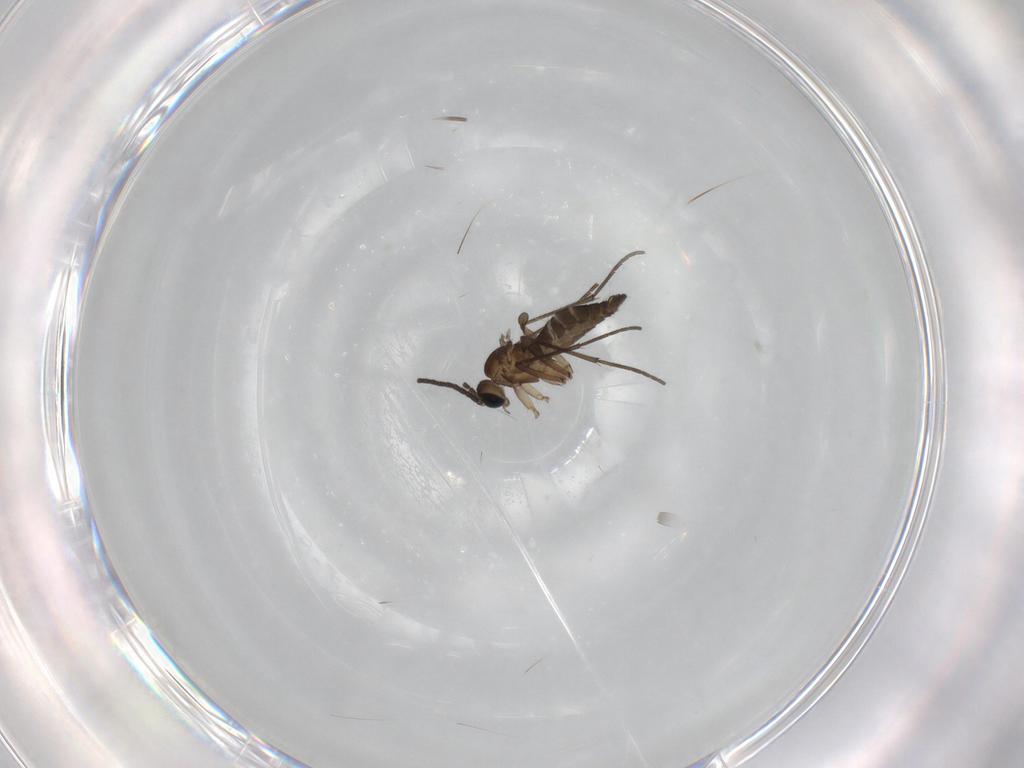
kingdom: Animalia
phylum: Arthropoda
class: Insecta
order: Diptera
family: Sciaridae
